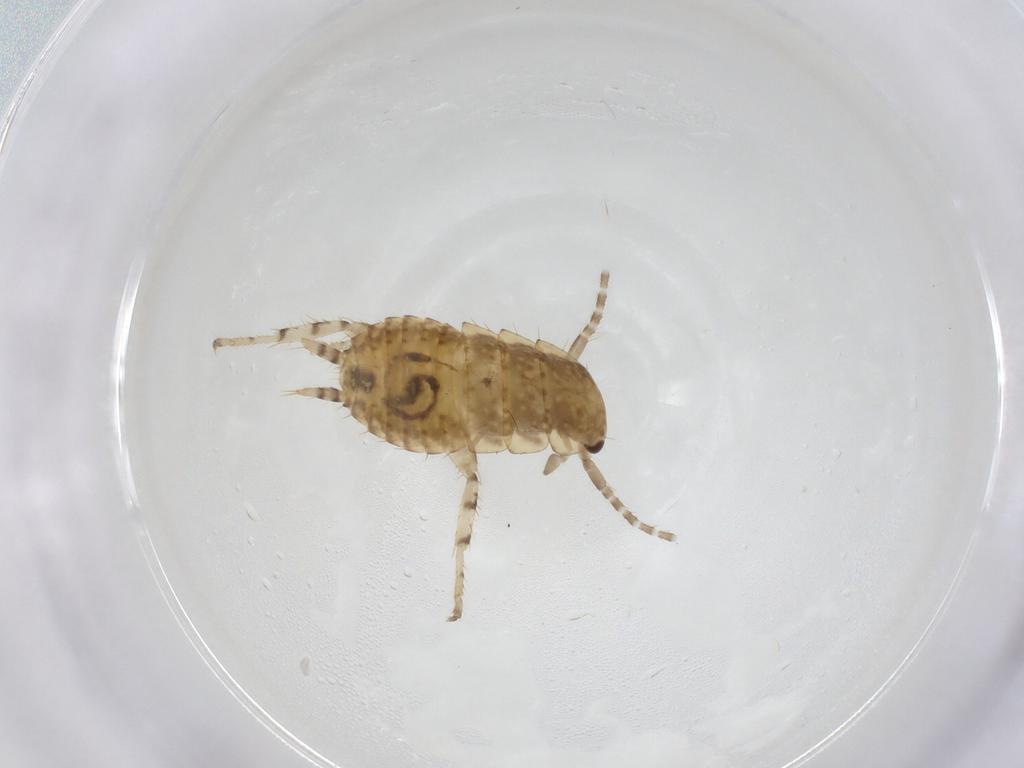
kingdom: Animalia
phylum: Arthropoda
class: Insecta
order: Blattodea
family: Ectobiidae
